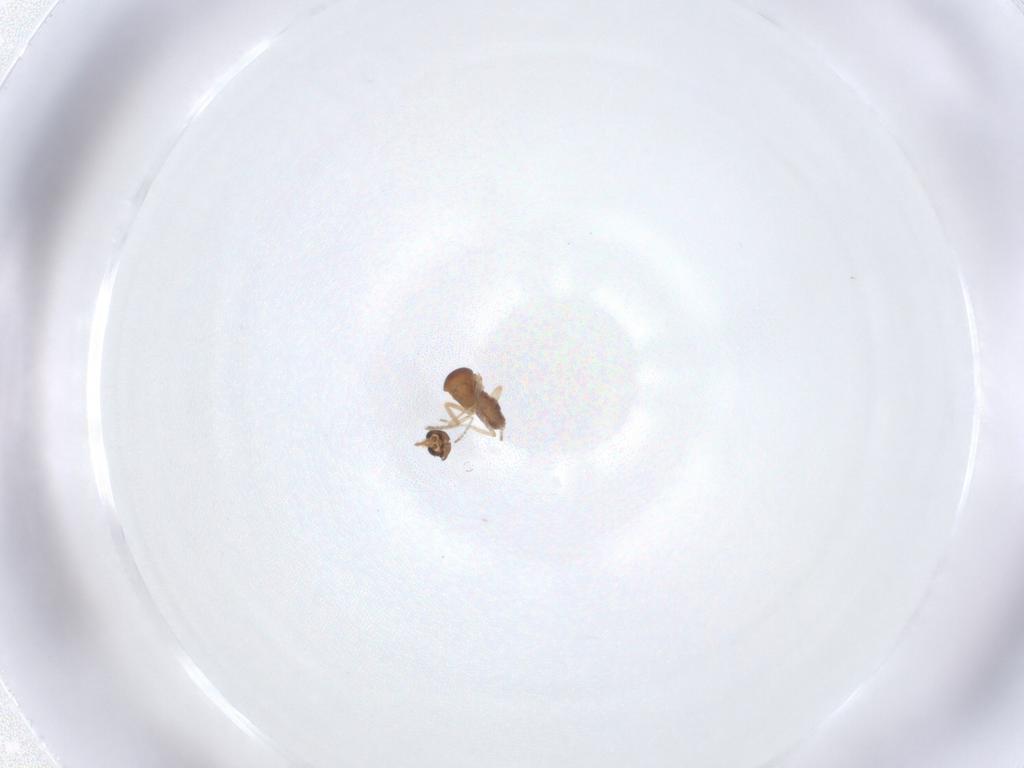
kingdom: Animalia
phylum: Arthropoda
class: Insecta
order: Diptera
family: Ceratopogonidae
